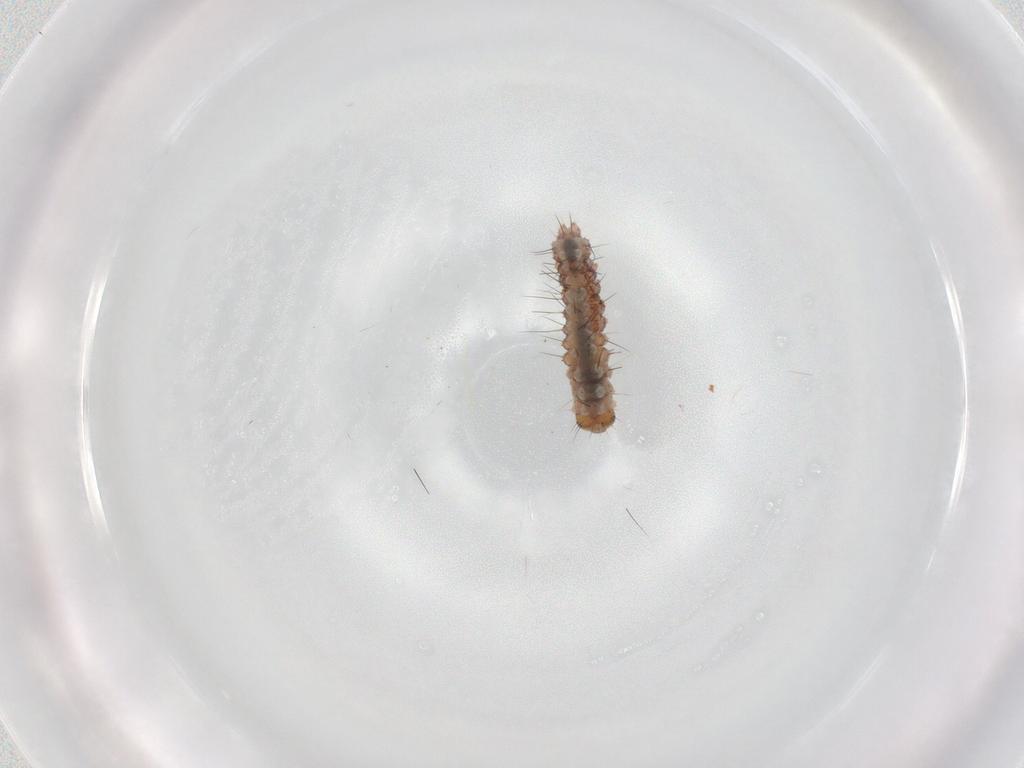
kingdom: Animalia
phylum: Arthropoda
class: Insecta
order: Lepidoptera
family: Erebidae
